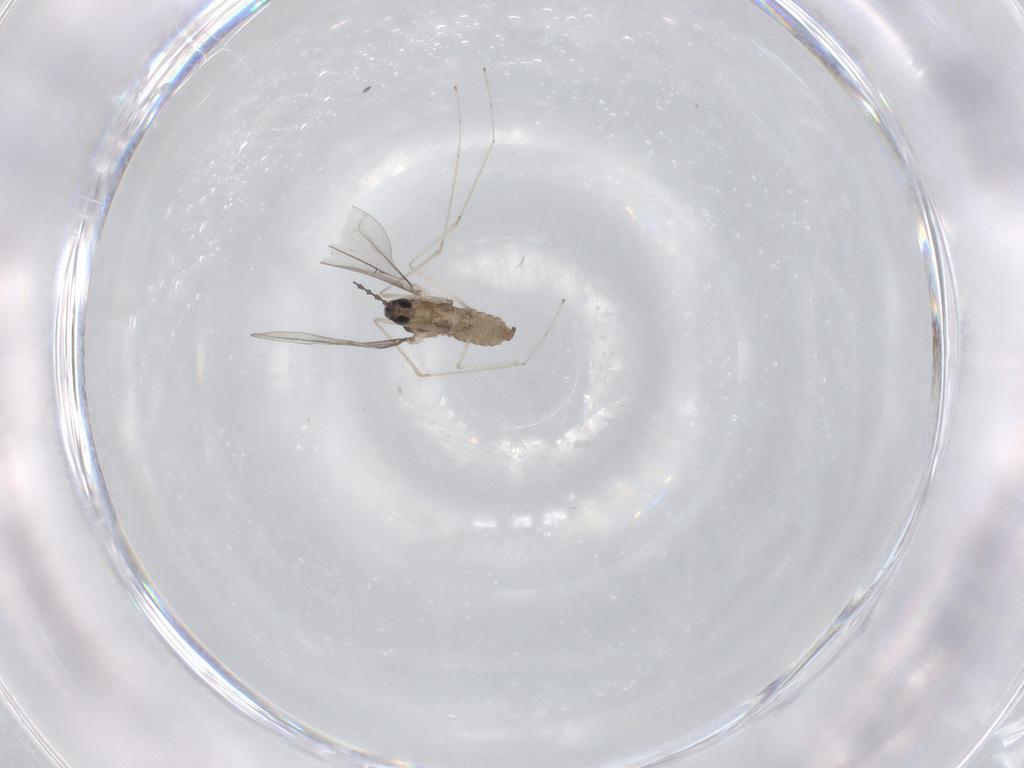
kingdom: Animalia
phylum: Arthropoda
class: Insecta
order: Diptera
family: Cecidomyiidae
